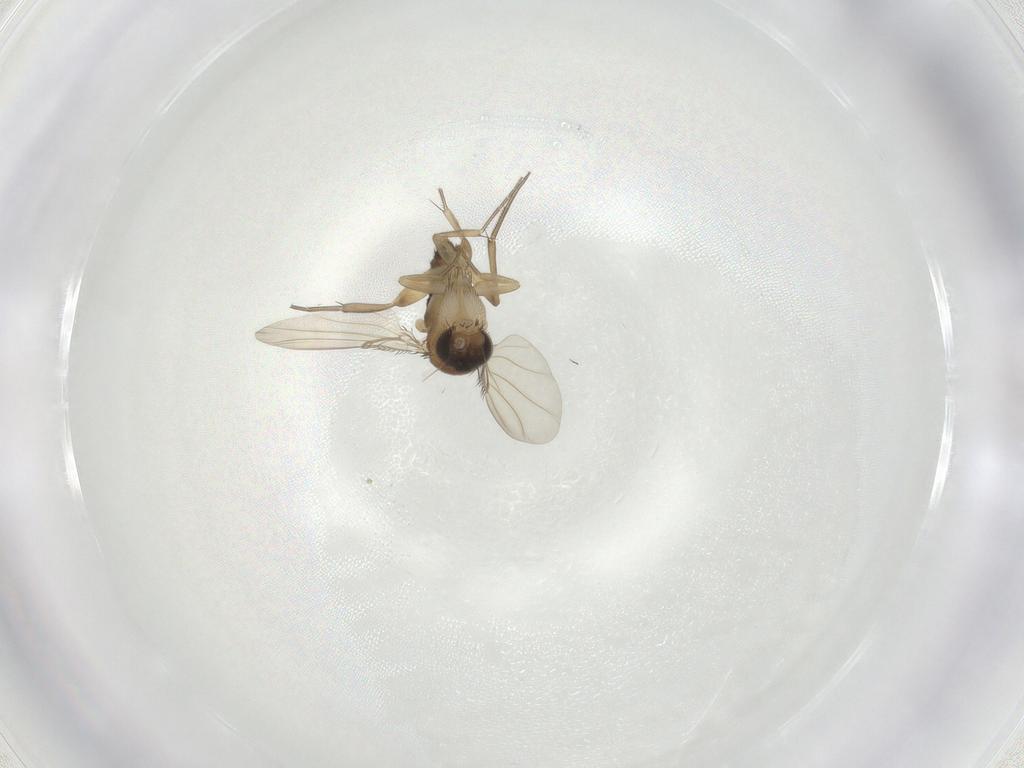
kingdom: Animalia
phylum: Arthropoda
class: Insecta
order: Diptera
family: Phoridae
